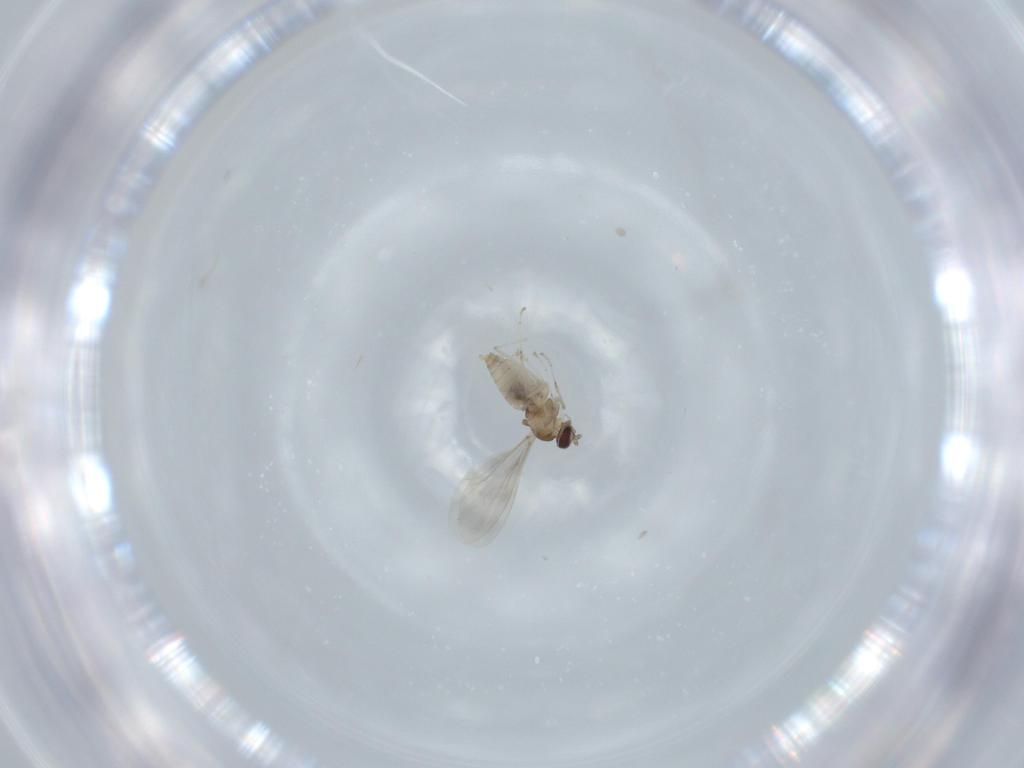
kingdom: Animalia
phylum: Arthropoda
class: Insecta
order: Diptera
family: Cecidomyiidae
